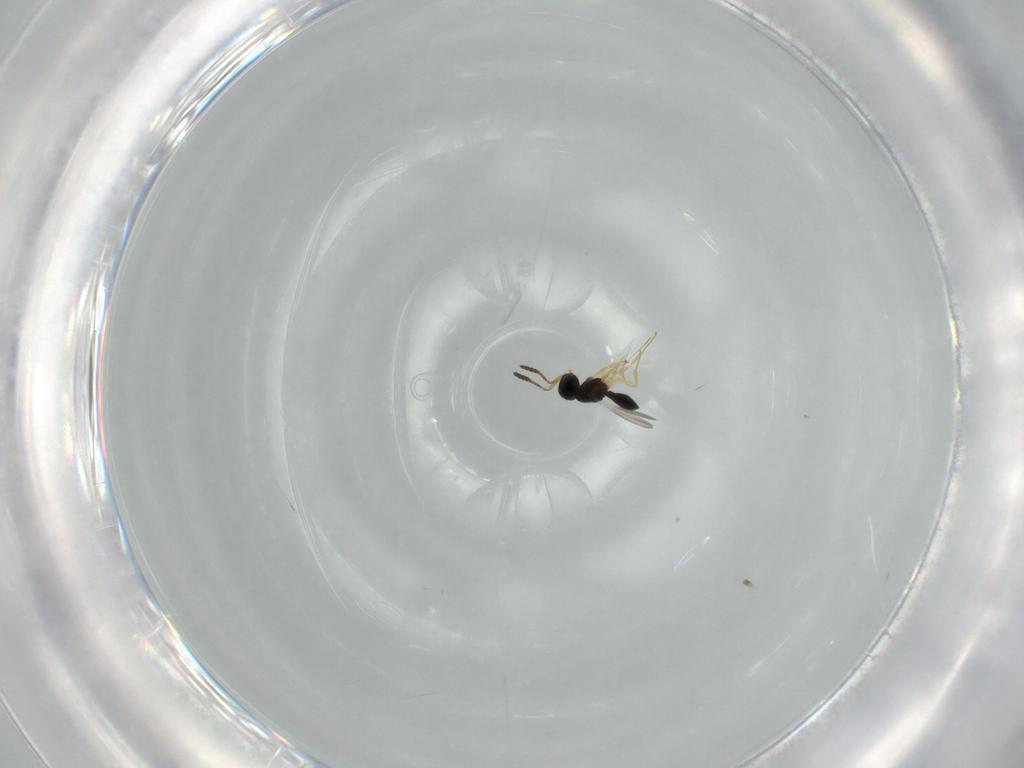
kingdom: Animalia
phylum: Arthropoda
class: Insecta
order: Hymenoptera
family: Scelionidae
